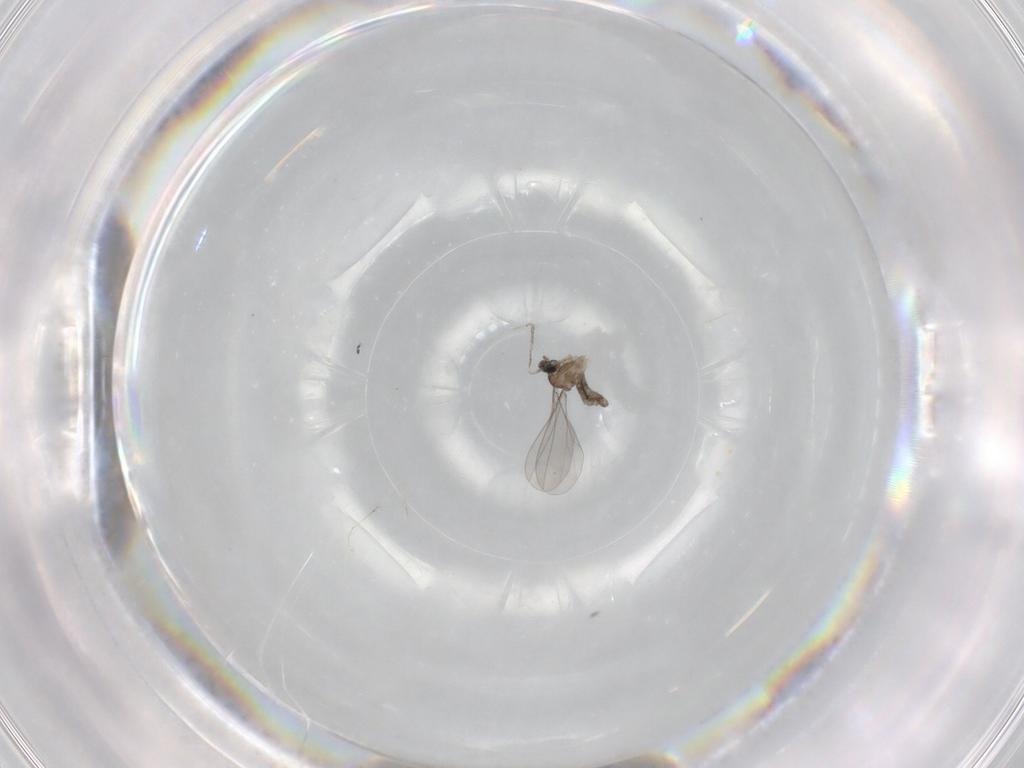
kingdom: Animalia
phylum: Arthropoda
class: Insecta
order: Diptera
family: Cecidomyiidae
